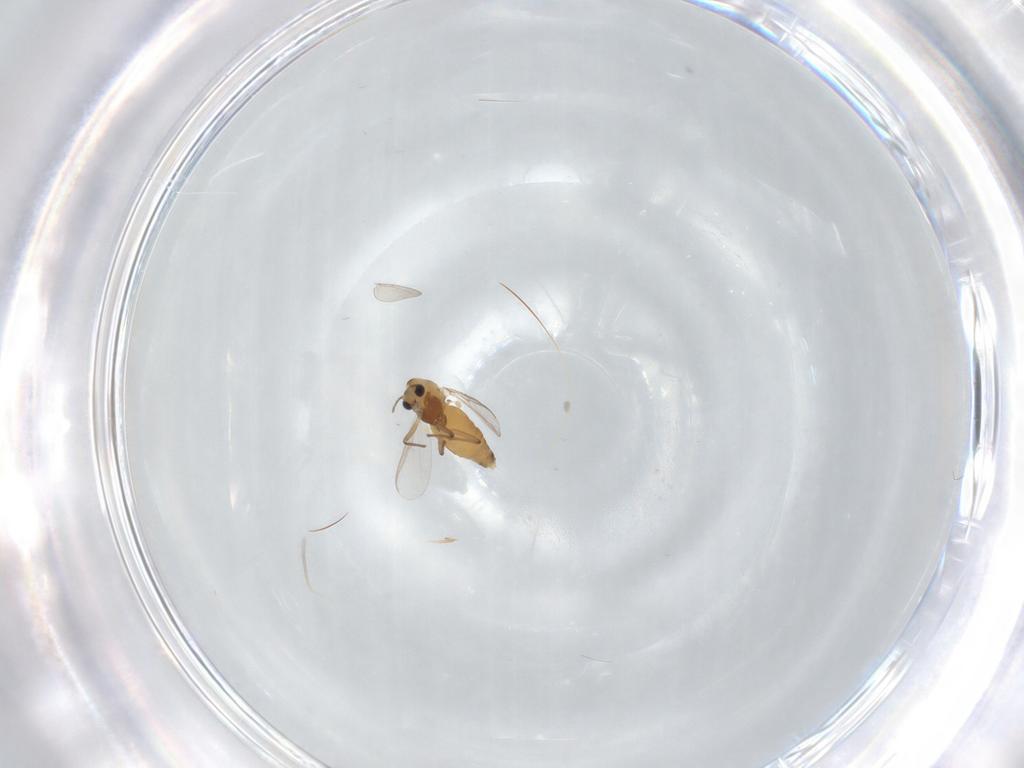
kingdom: Animalia
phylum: Arthropoda
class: Insecta
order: Diptera
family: Chironomidae
